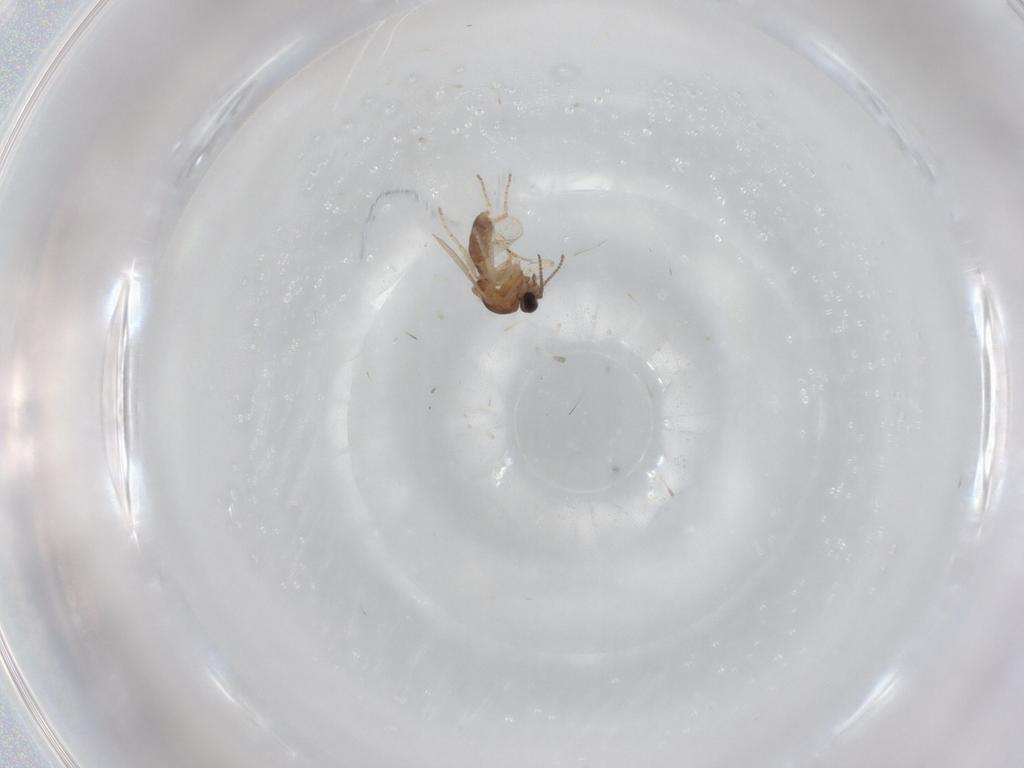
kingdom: Animalia
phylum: Arthropoda
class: Insecta
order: Diptera
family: Ceratopogonidae
